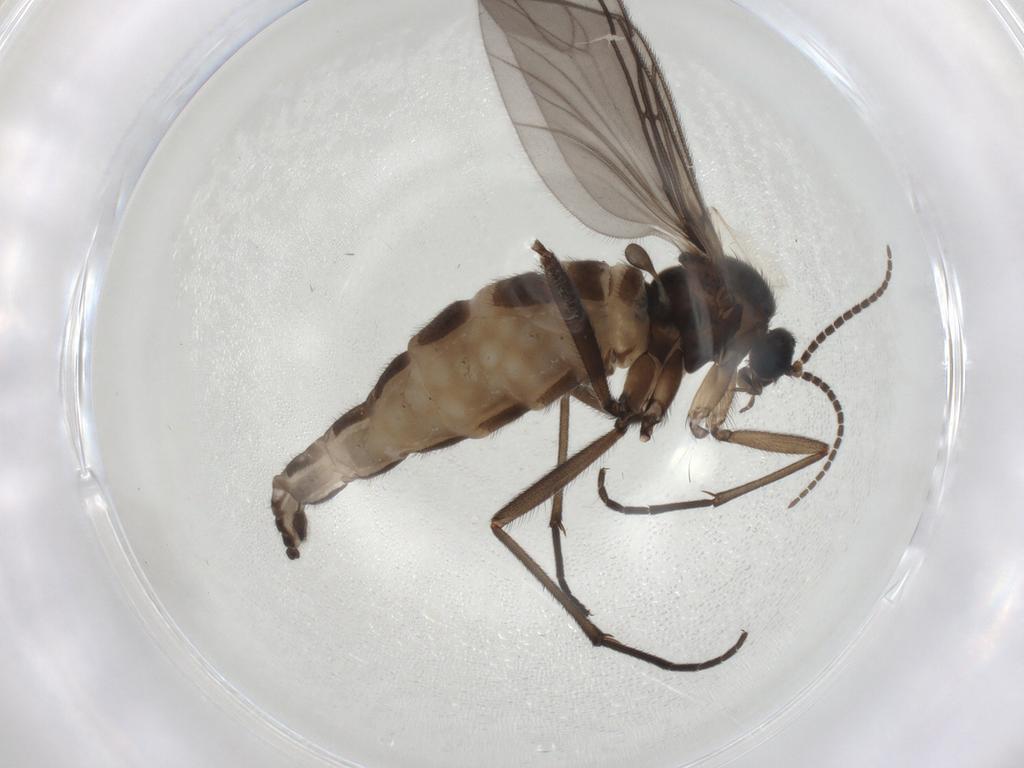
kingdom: Animalia
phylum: Arthropoda
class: Insecta
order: Diptera
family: Sciaridae
